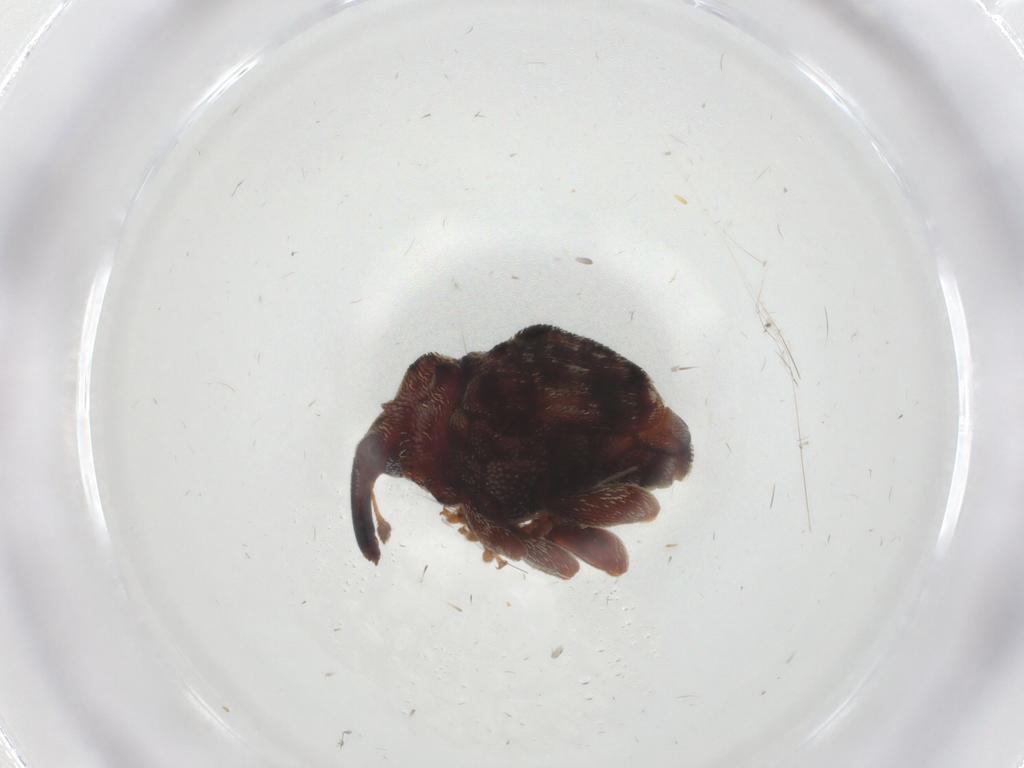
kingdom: Animalia
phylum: Arthropoda
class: Insecta
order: Coleoptera
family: Curculionidae
